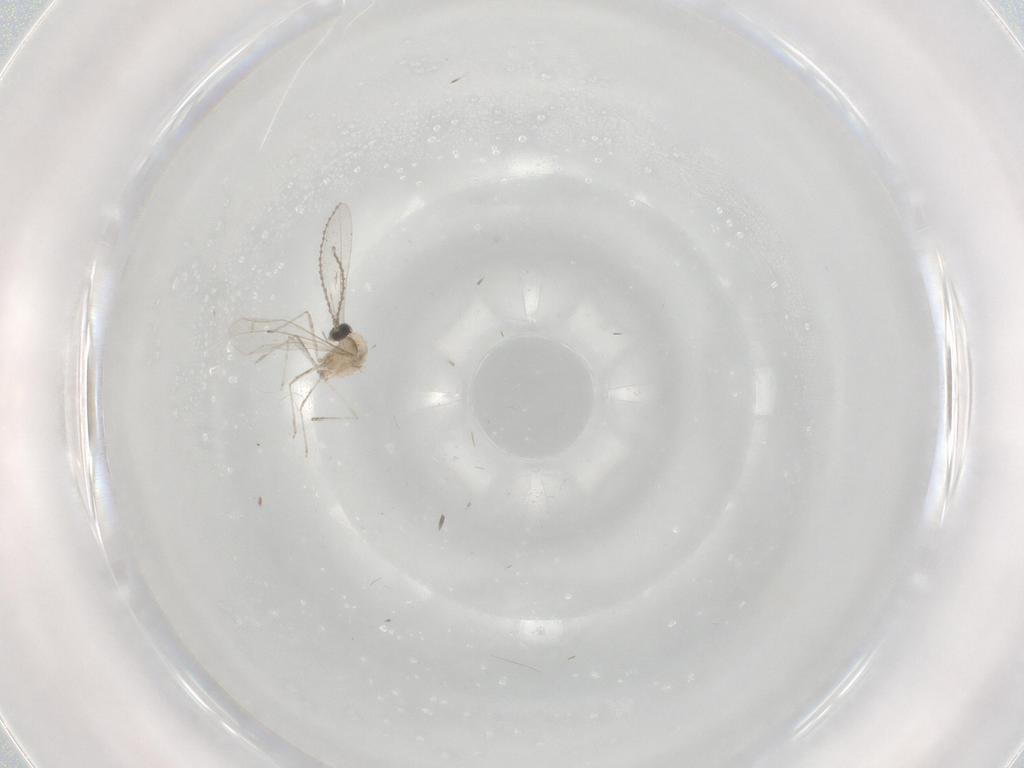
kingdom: Animalia
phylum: Arthropoda
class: Insecta
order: Diptera
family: Cecidomyiidae
